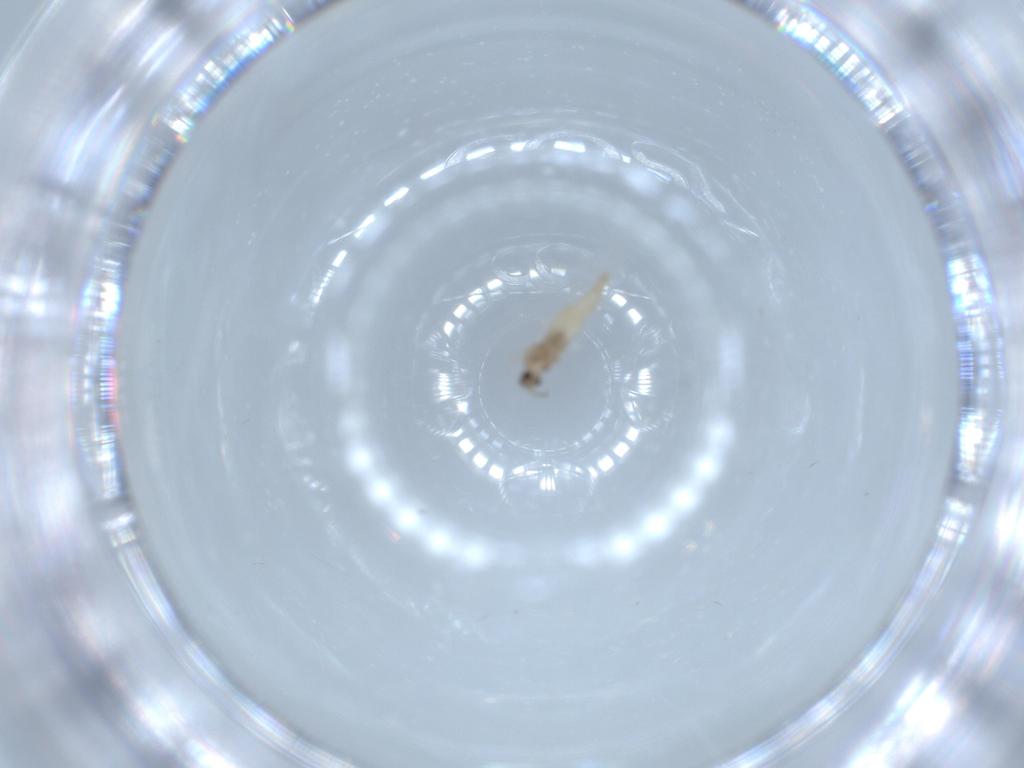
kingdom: Animalia
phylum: Arthropoda
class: Insecta
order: Diptera
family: Cecidomyiidae
